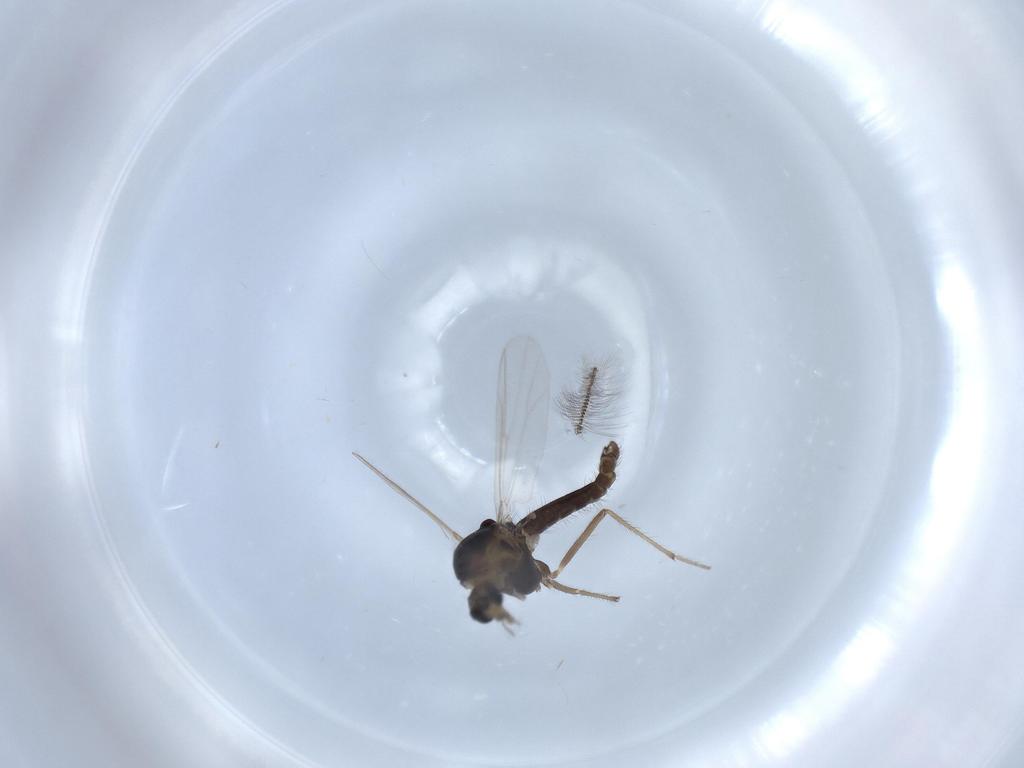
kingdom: Animalia
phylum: Arthropoda
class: Insecta
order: Diptera
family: Chironomidae
